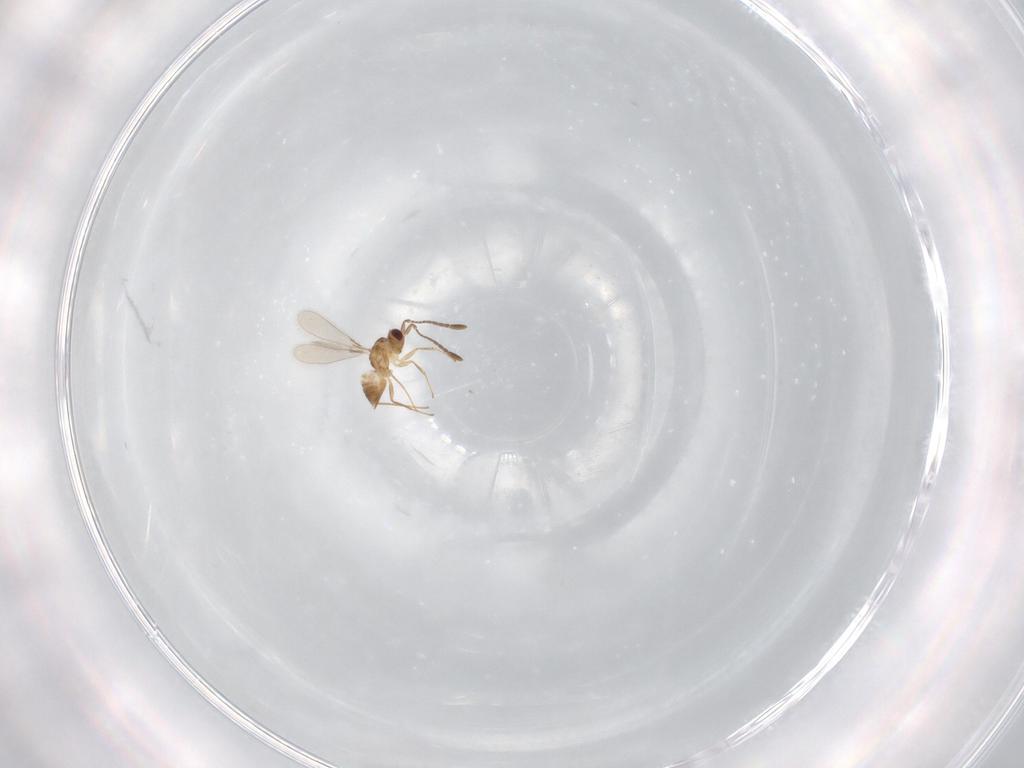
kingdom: Animalia
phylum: Arthropoda
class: Insecta
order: Hymenoptera
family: Mymaridae
